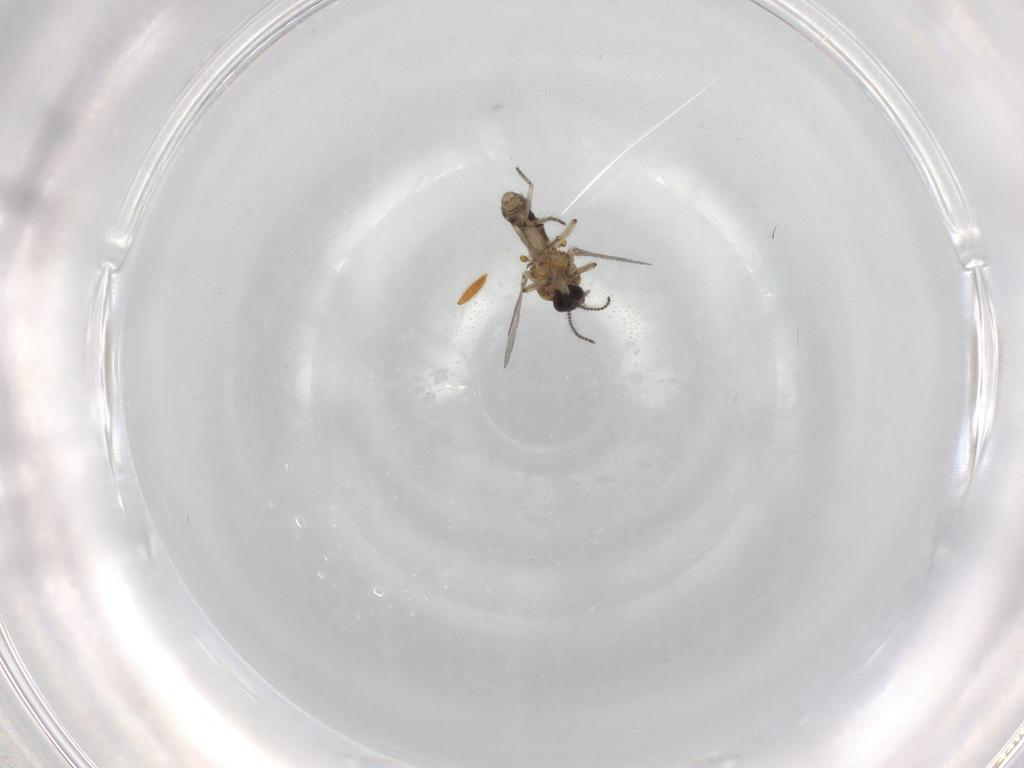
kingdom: Animalia
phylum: Arthropoda
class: Insecta
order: Diptera
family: Ceratopogonidae
